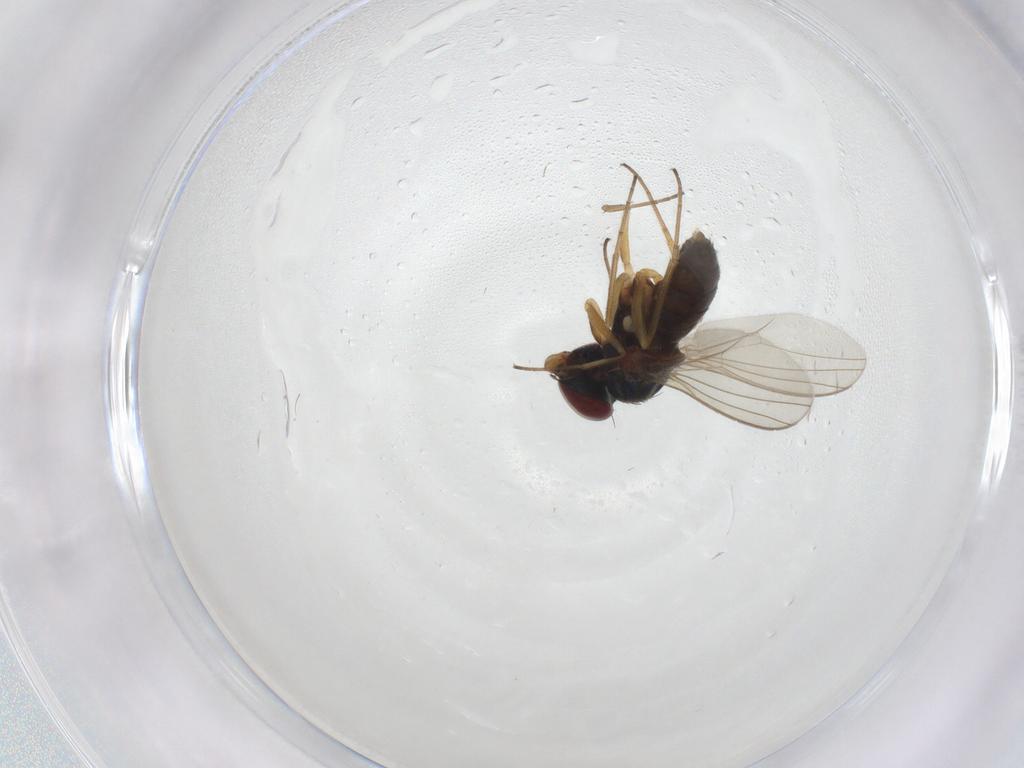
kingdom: Animalia
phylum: Arthropoda
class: Insecta
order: Diptera
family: Dolichopodidae
